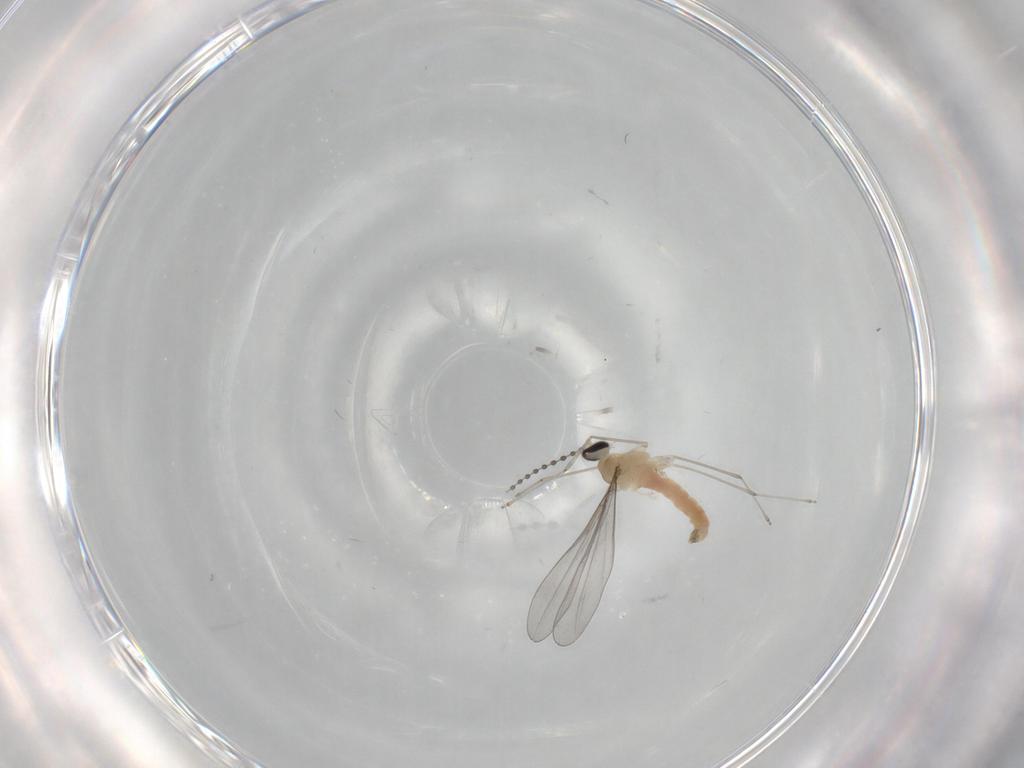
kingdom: Animalia
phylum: Arthropoda
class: Insecta
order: Diptera
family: Cecidomyiidae
